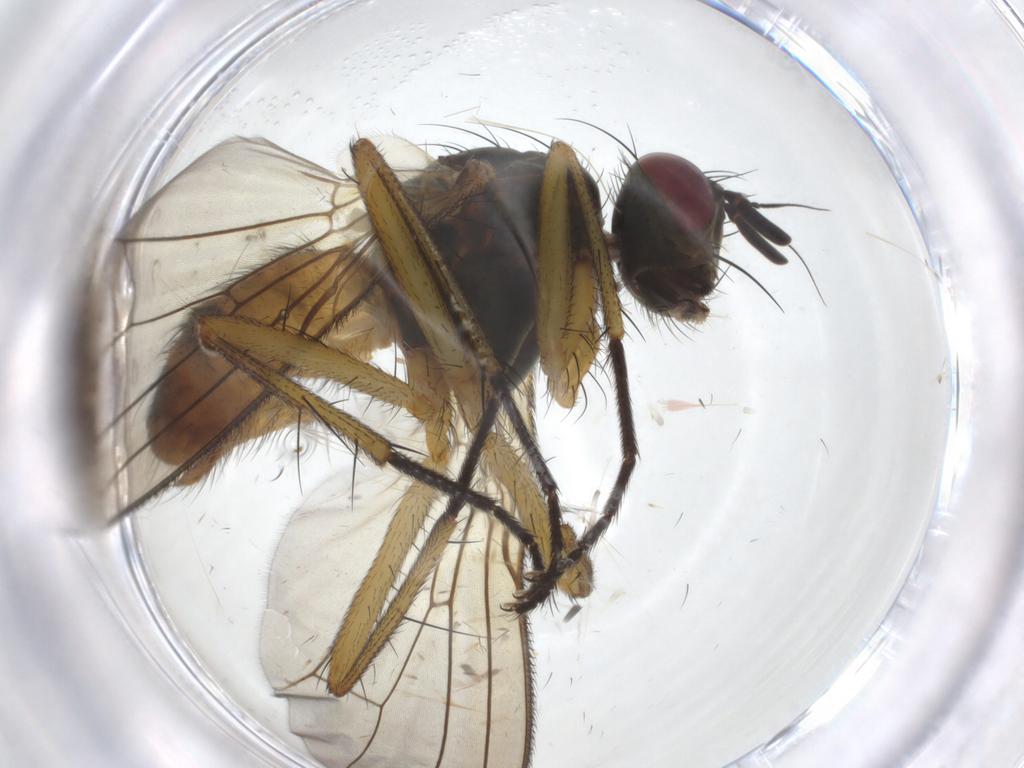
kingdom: Animalia
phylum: Arthropoda
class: Insecta
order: Diptera
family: Muscidae
